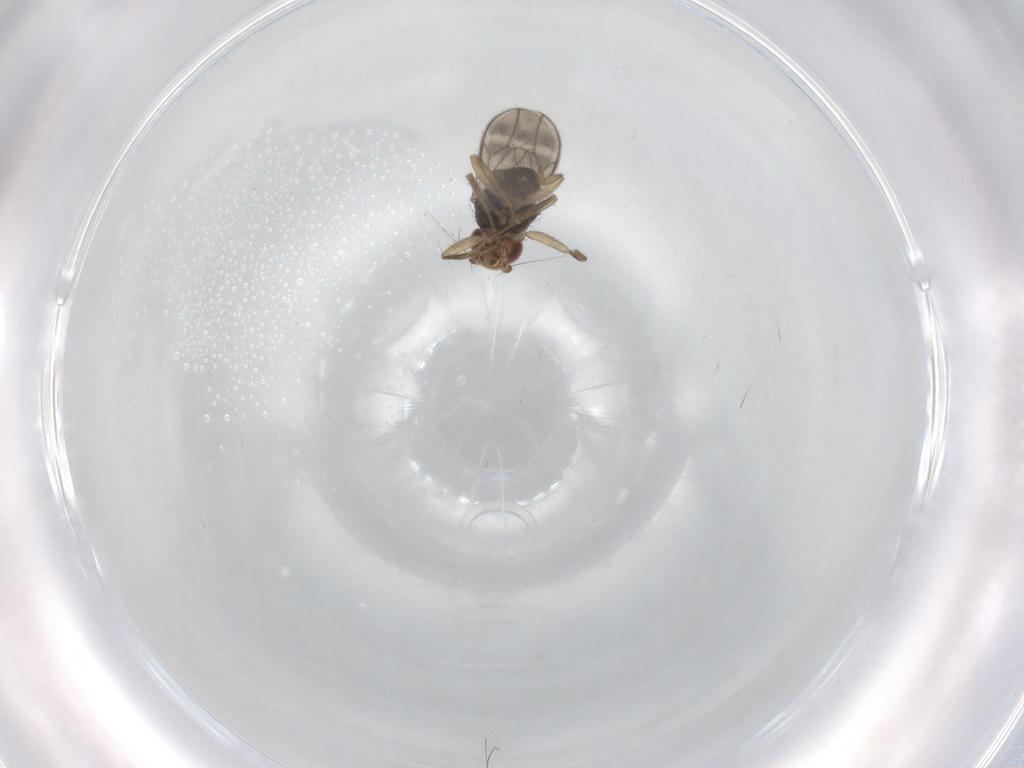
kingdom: Animalia
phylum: Arthropoda
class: Insecta
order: Diptera
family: Sphaeroceridae
